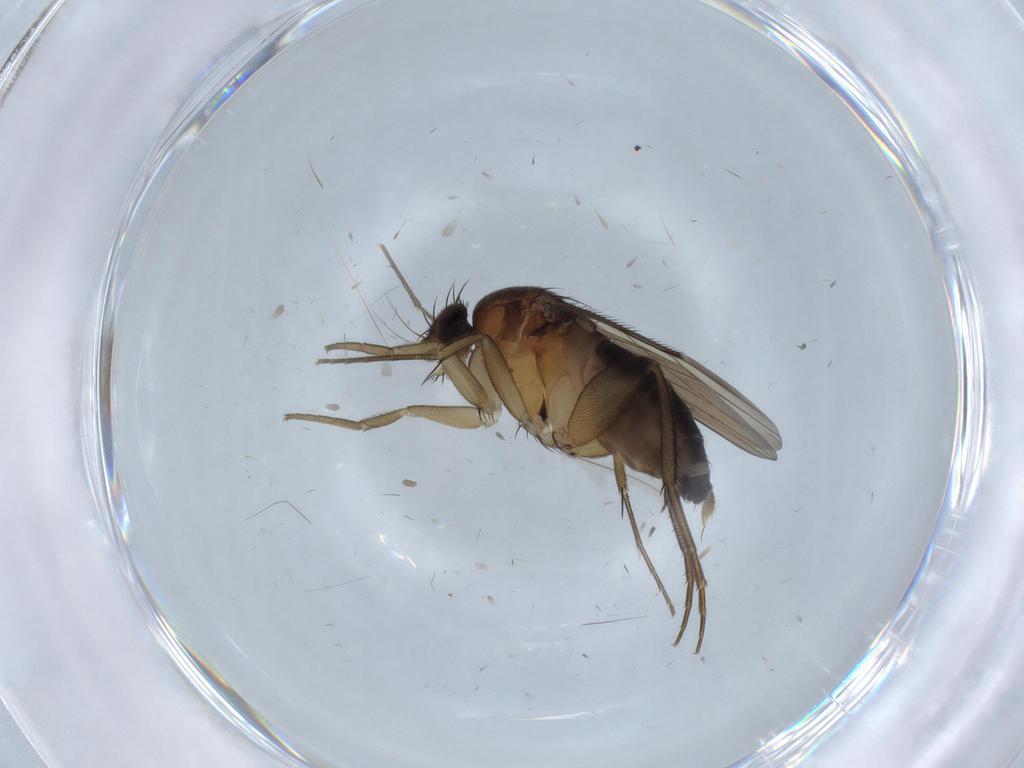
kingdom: Animalia
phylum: Arthropoda
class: Insecta
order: Diptera
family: Phoridae
